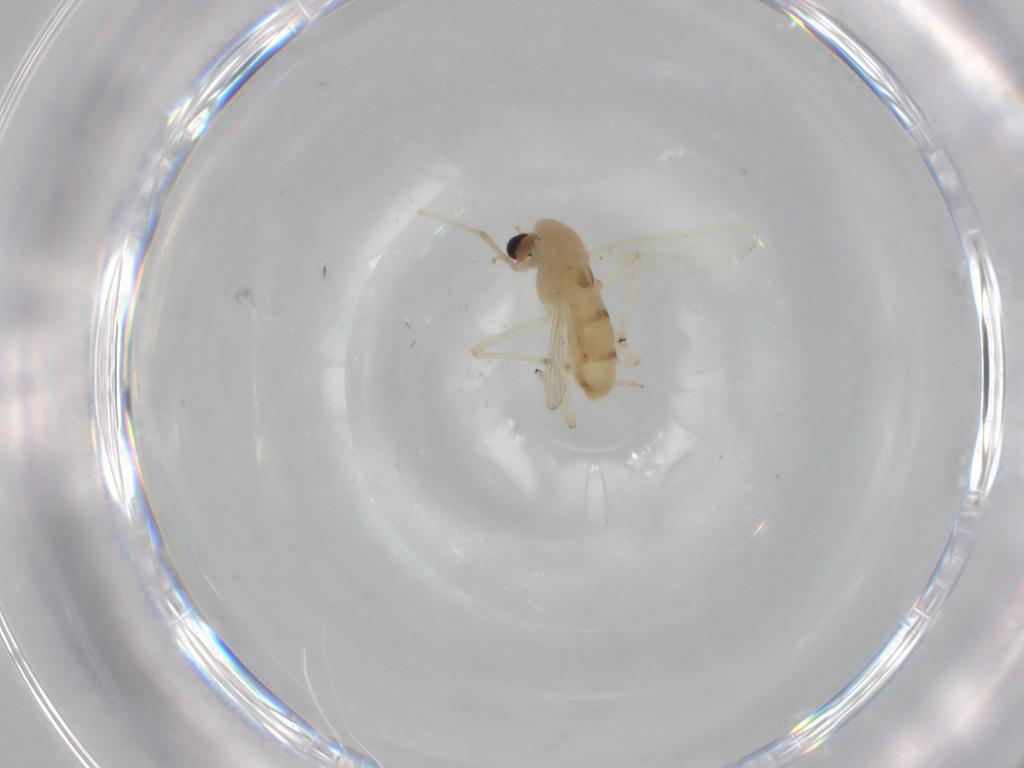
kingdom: Animalia
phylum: Arthropoda
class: Insecta
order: Diptera
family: Chironomidae
